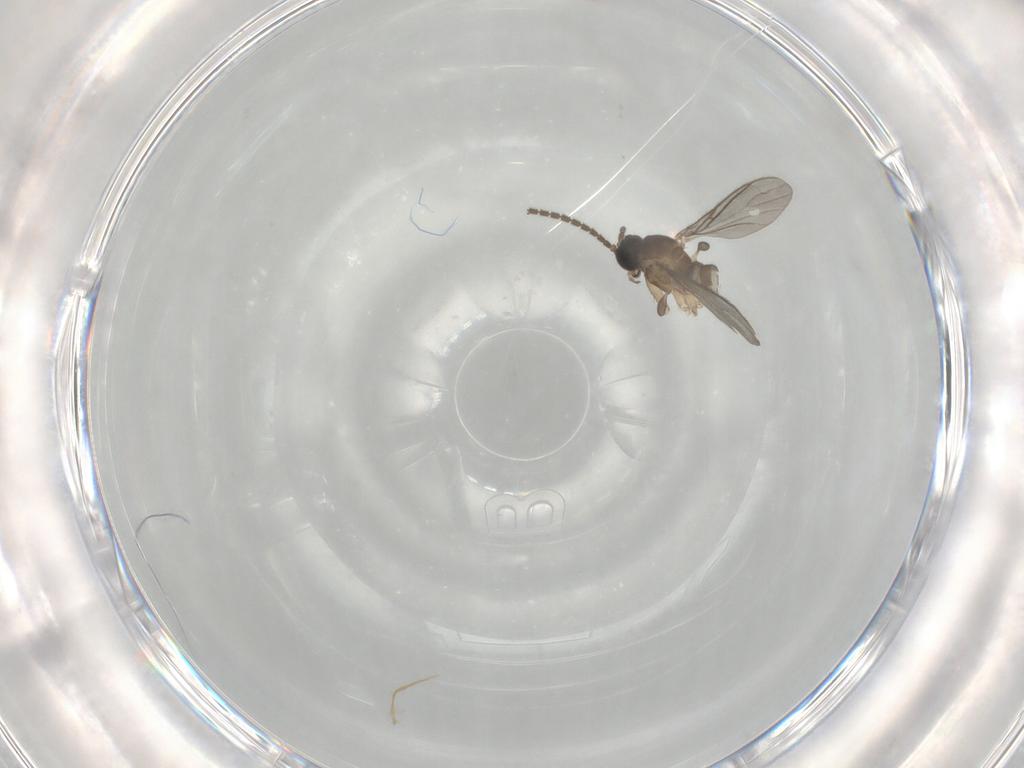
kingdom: Animalia
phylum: Arthropoda
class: Insecta
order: Diptera
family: Sciaridae
